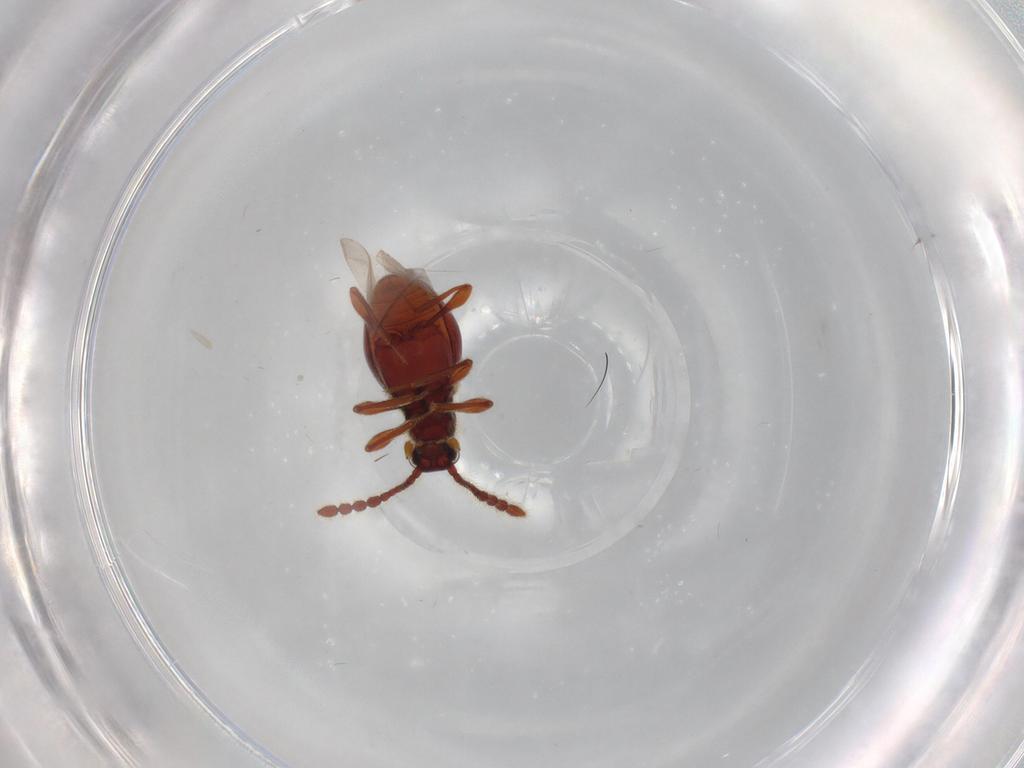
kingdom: Animalia
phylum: Arthropoda
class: Insecta
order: Coleoptera
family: Staphylinidae
